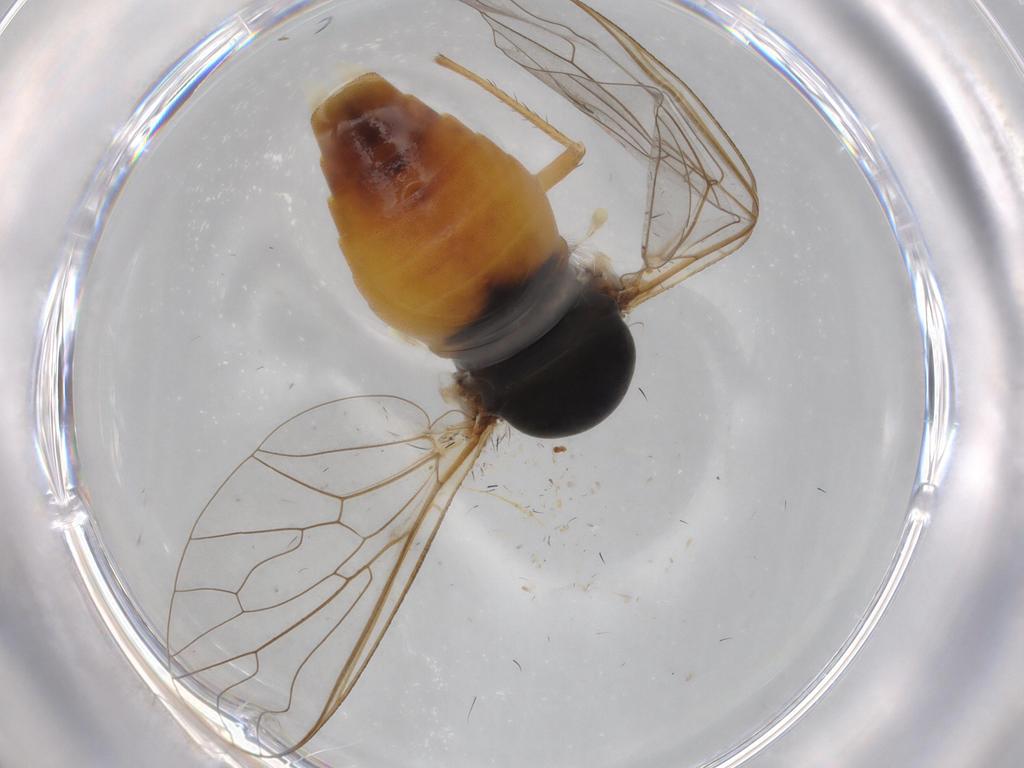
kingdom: Animalia
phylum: Arthropoda
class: Insecta
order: Diptera
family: Bombyliidae
